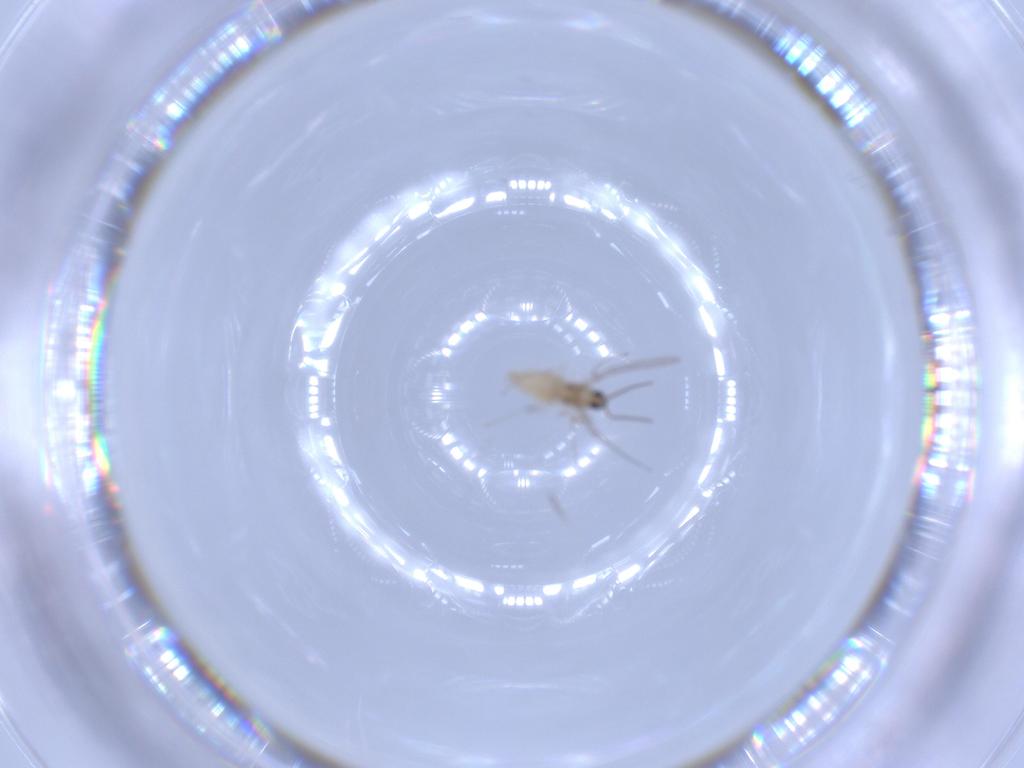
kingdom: Animalia
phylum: Arthropoda
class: Insecta
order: Diptera
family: Cecidomyiidae
